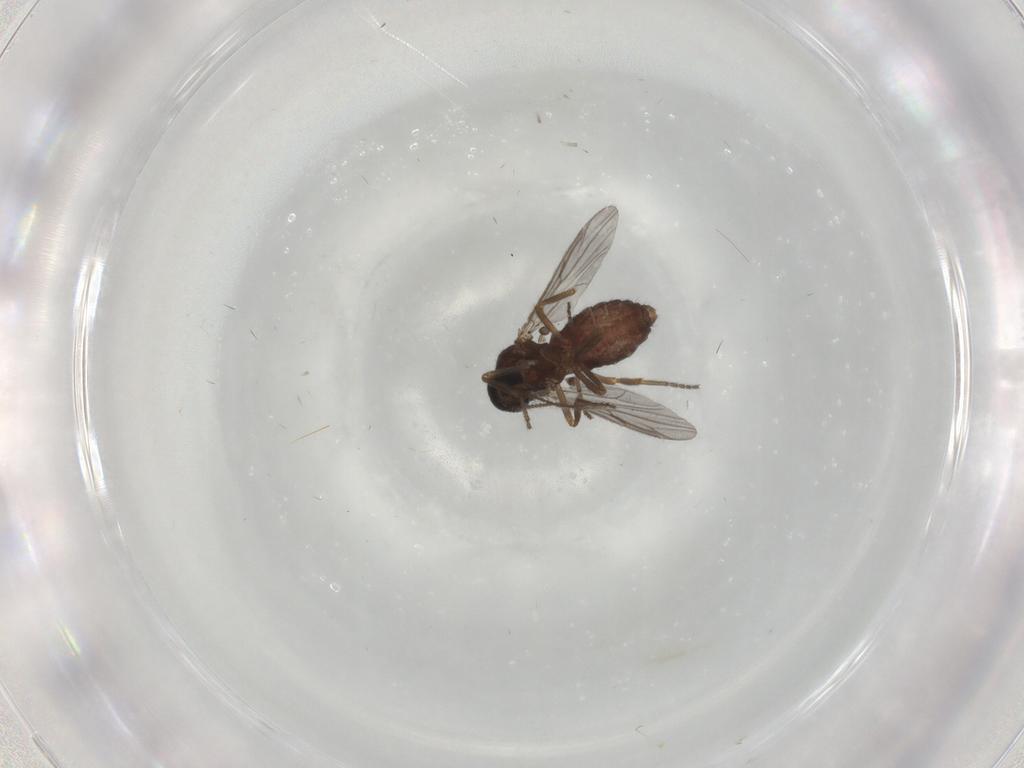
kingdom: Animalia
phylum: Arthropoda
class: Insecta
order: Diptera
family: Ceratopogonidae
